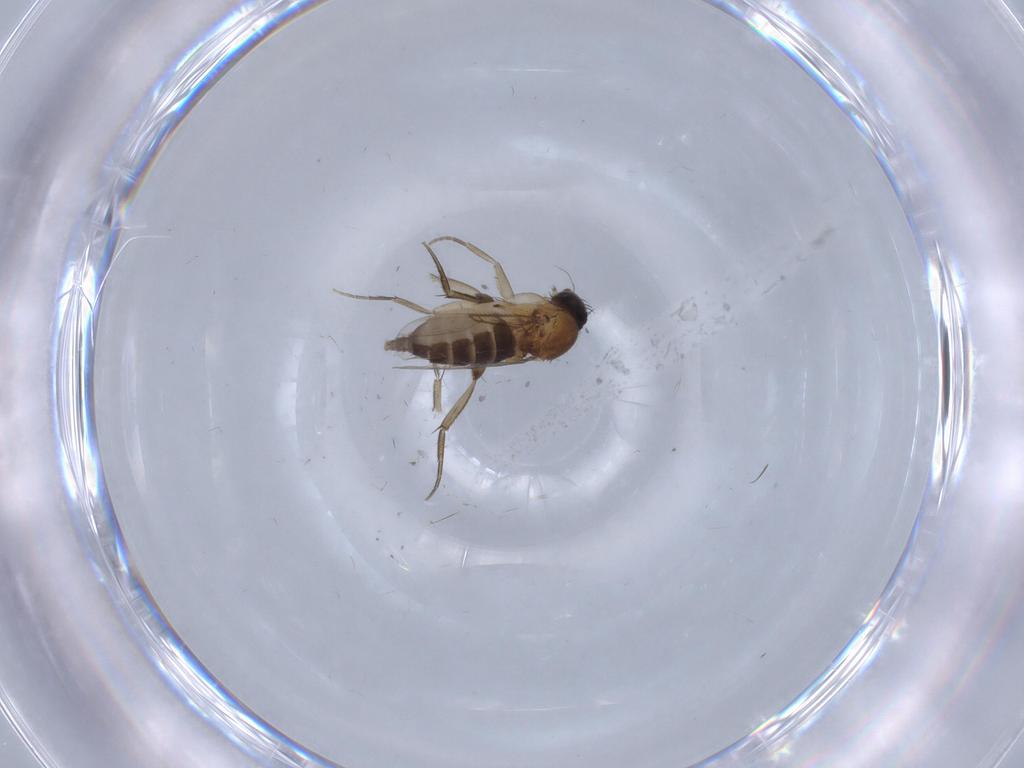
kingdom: Animalia
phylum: Arthropoda
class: Insecta
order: Diptera
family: Phoridae
